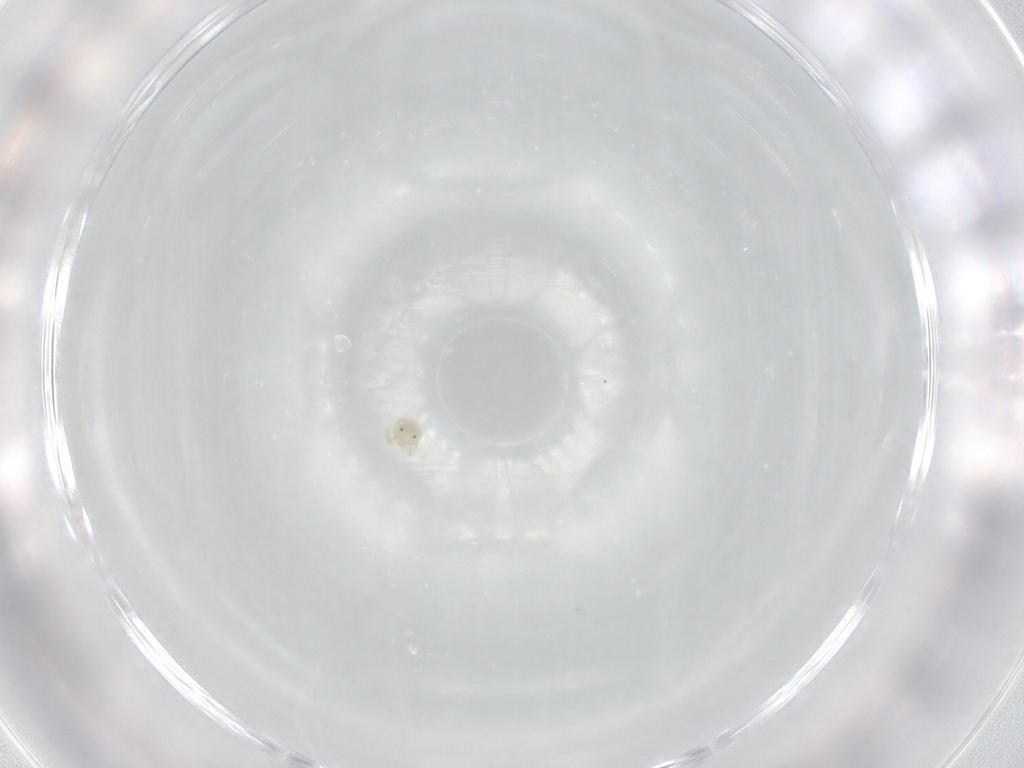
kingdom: Animalia
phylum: Arthropoda
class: Arachnida
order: Trombidiformes
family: Lebertiidae
